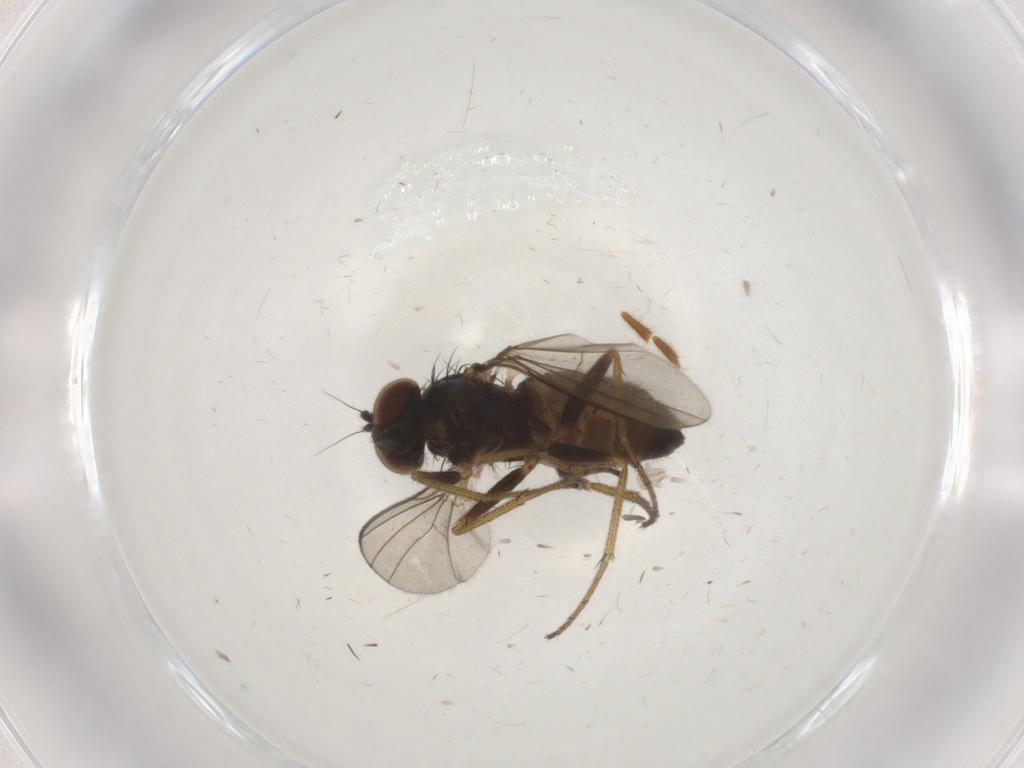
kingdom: Animalia
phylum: Arthropoda
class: Insecta
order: Diptera
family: Dolichopodidae
